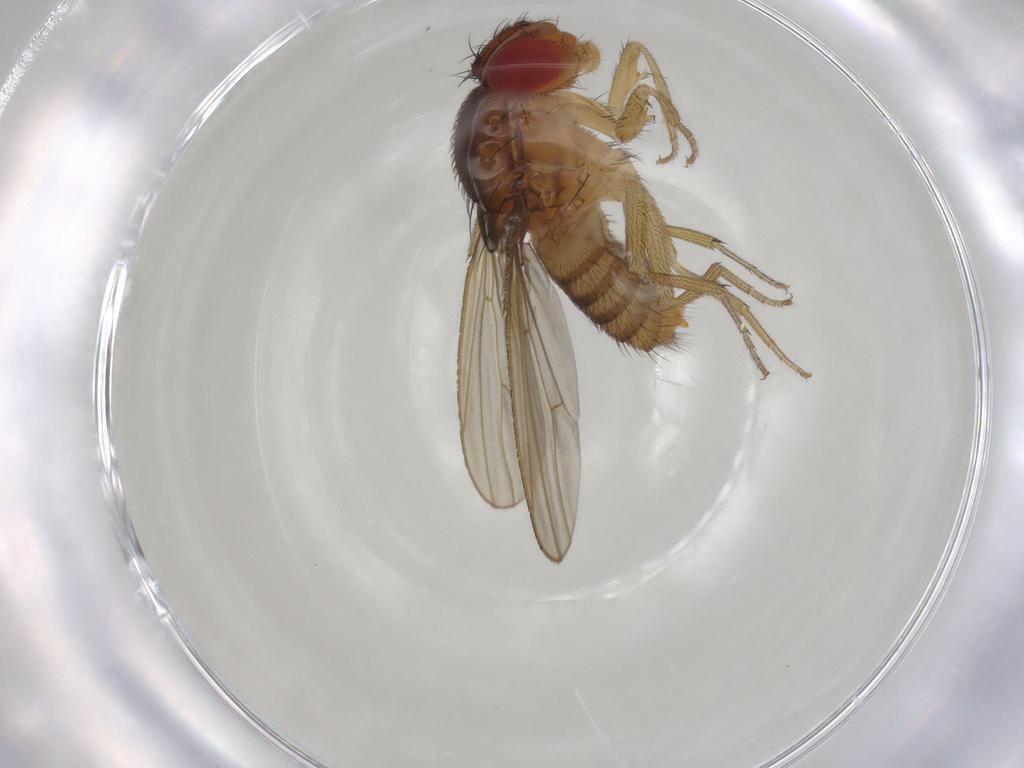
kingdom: Animalia
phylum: Arthropoda
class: Insecta
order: Diptera
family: Drosophilidae
